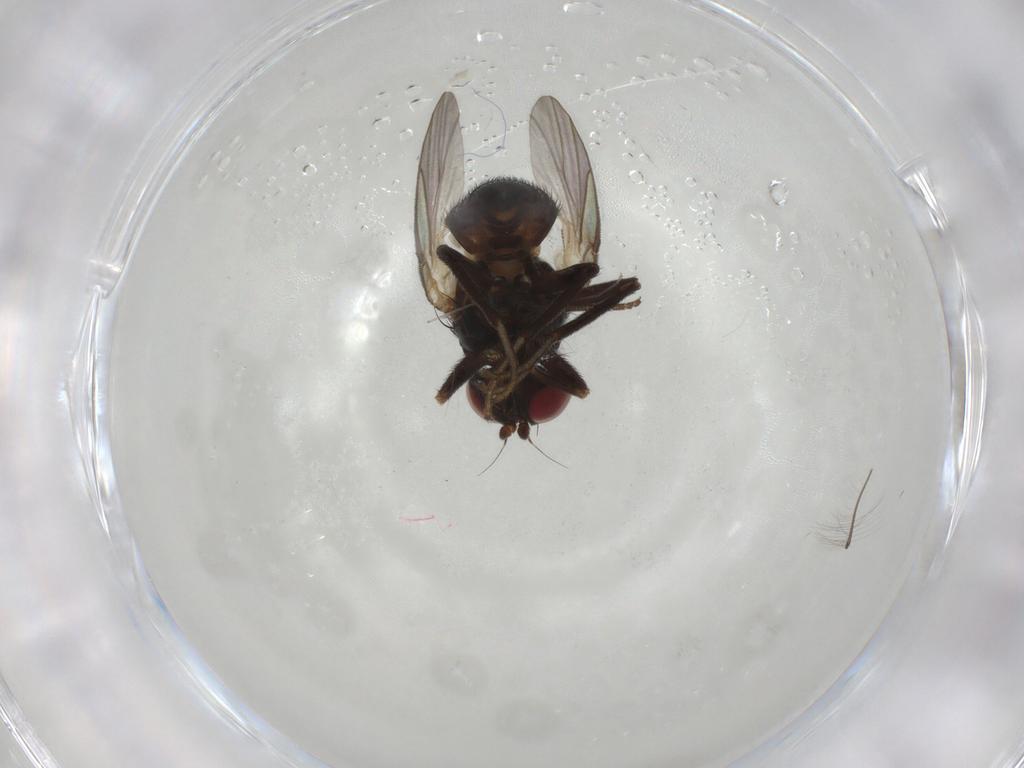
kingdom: Animalia
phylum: Arthropoda
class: Insecta
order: Diptera
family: Agromyzidae
